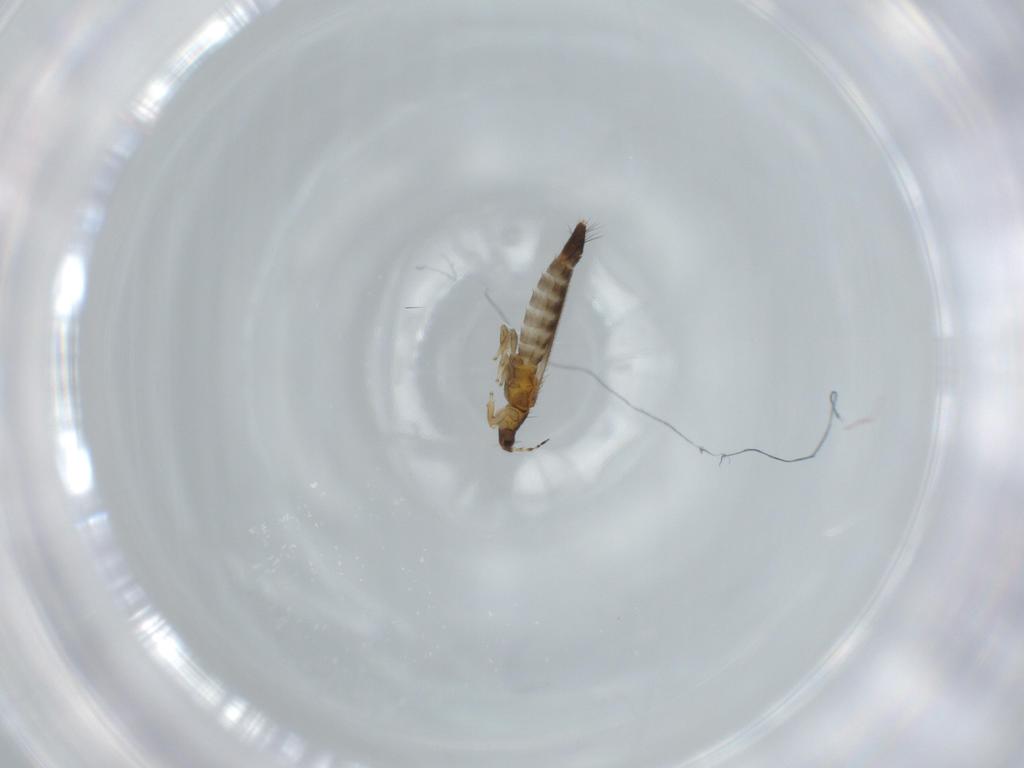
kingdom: Animalia
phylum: Arthropoda
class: Insecta
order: Thysanoptera
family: Thripidae
